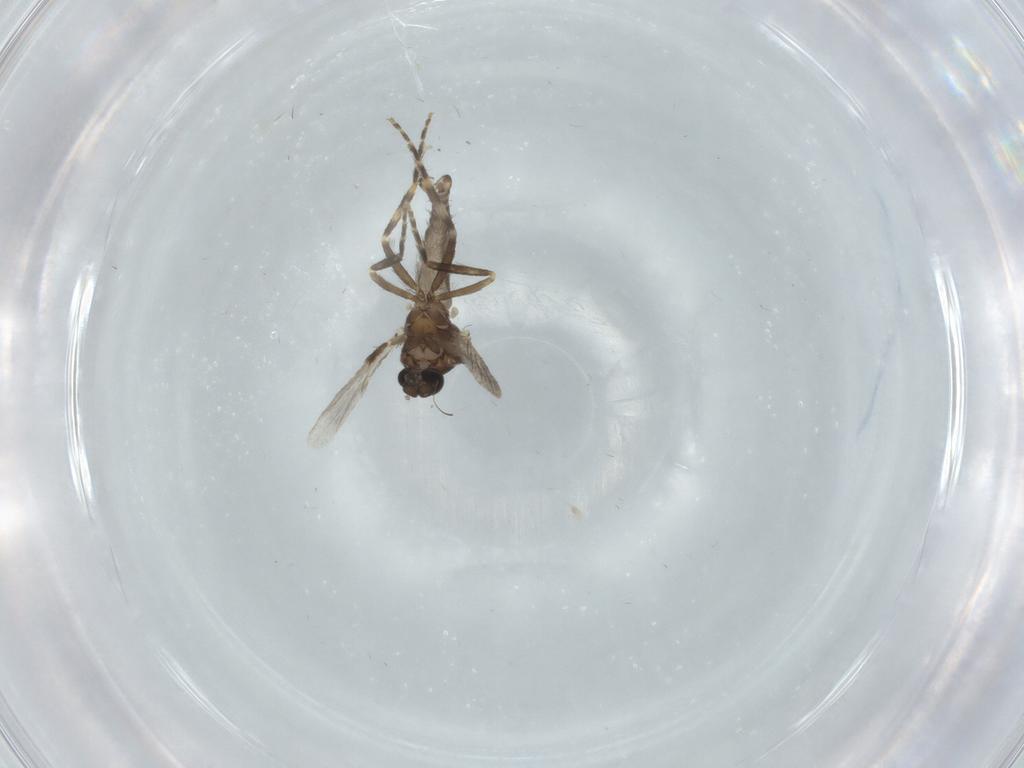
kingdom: Animalia
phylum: Arthropoda
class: Insecta
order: Diptera
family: Ceratopogonidae
